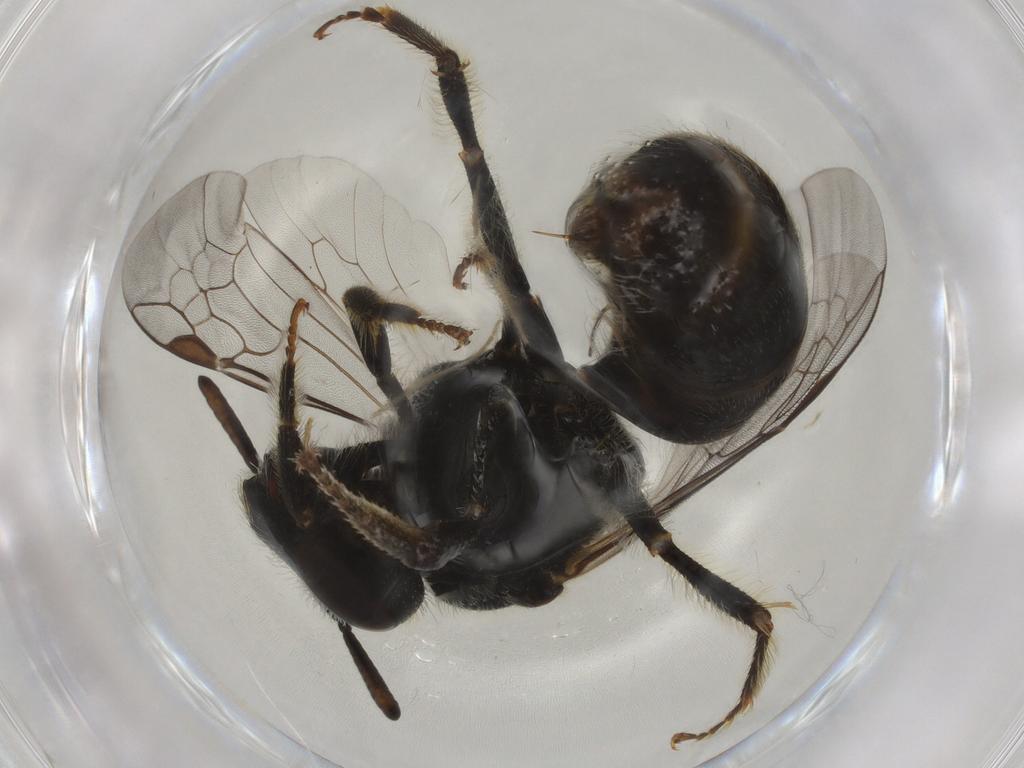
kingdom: Animalia
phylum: Arthropoda
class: Insecta
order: Hymenoptera
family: Halictidae
